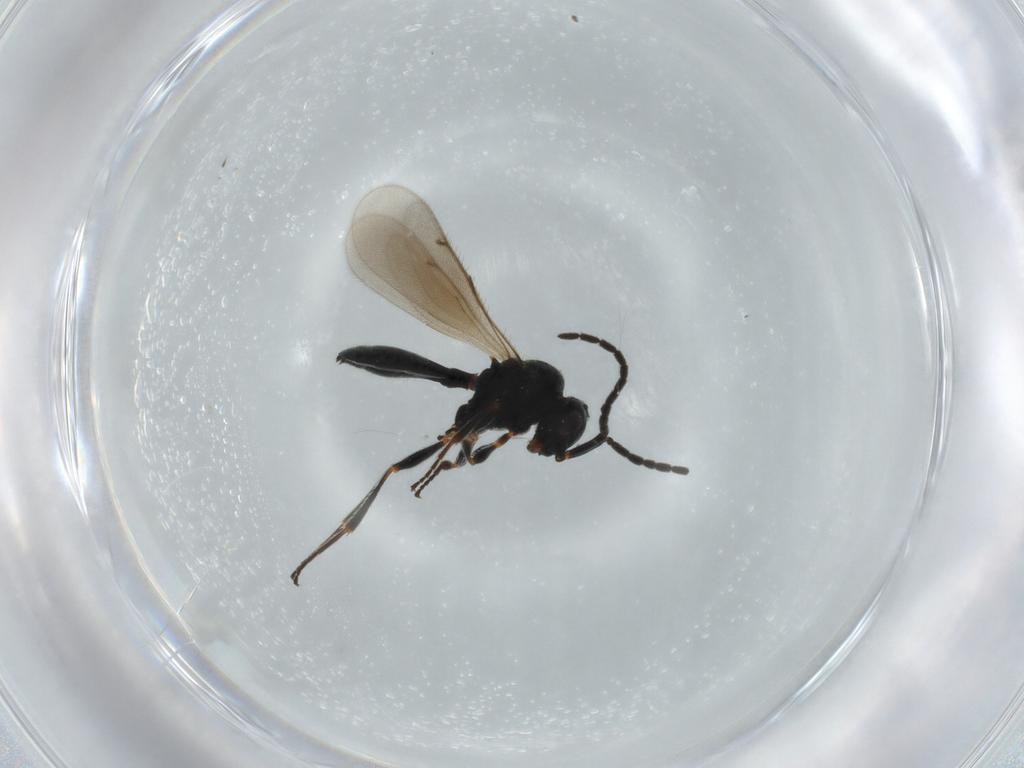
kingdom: Animalia
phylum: Arthropoda
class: Insecta
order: Hymenoptera
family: Scelionidae
